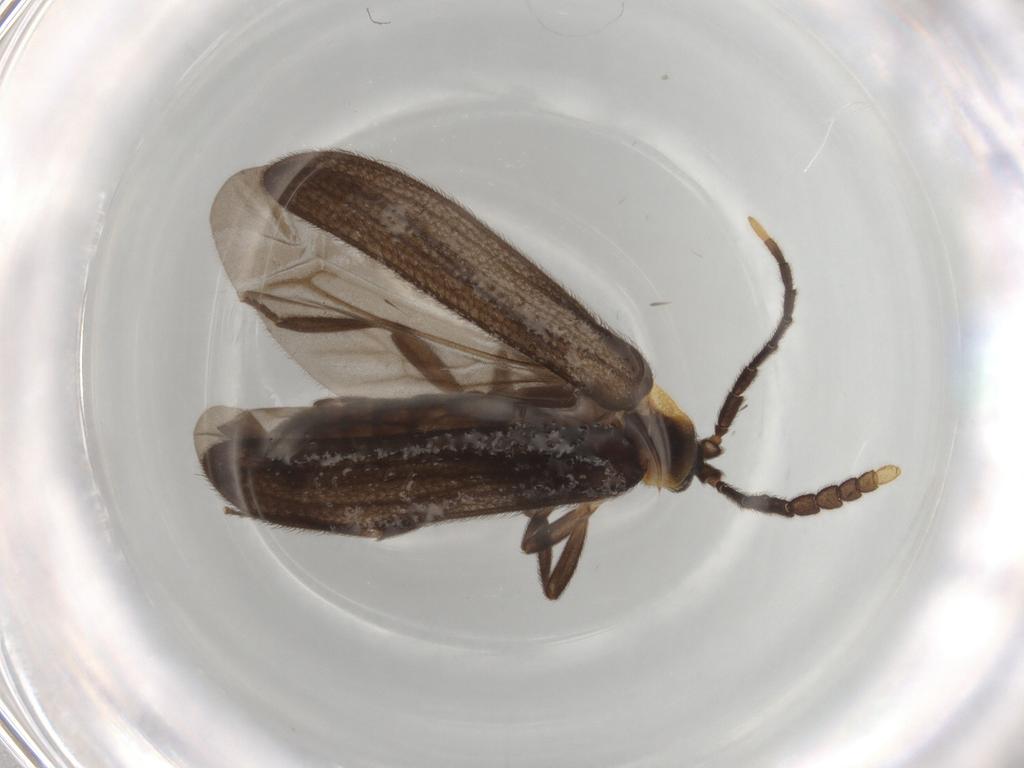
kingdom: Animalia
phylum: Arthropoda
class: Insecta
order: Coleoptera
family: Lycidae
